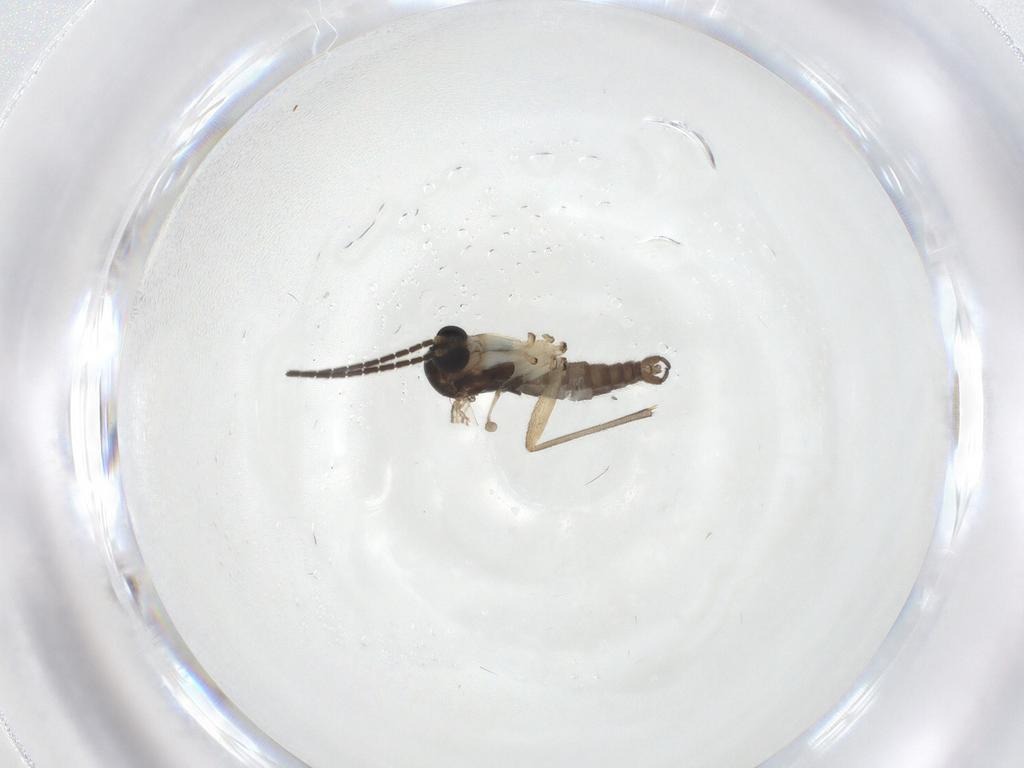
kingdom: Animalia
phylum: Arthropoda
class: Insecta
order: Diptera
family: Sciaridae
